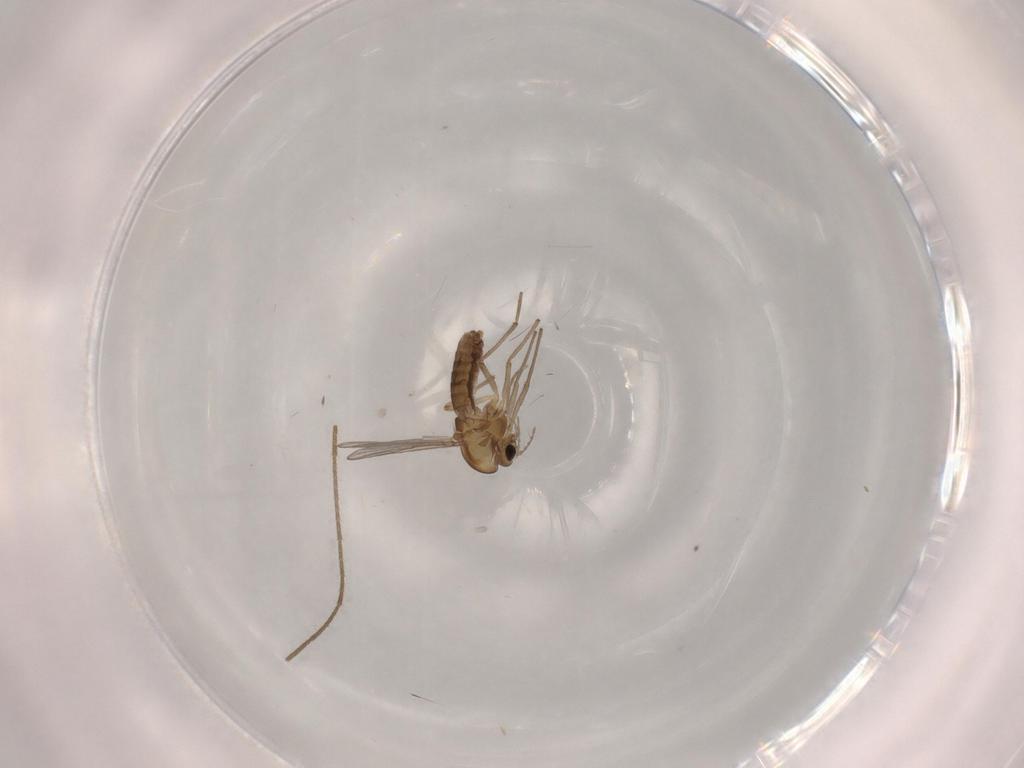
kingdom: Animalia
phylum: Arthropoda
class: Insecta
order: Diptera
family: Chironomidae
